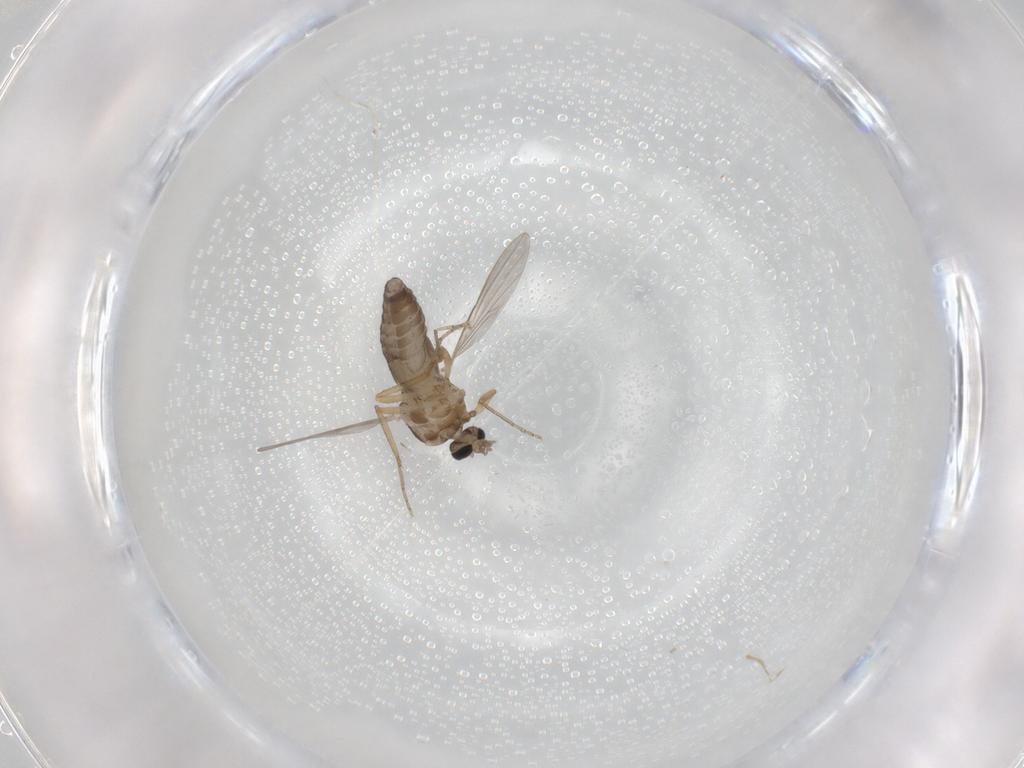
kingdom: Animalia
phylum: Arthropoda
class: Insecta
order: Diptera
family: Ceratopogonidae
